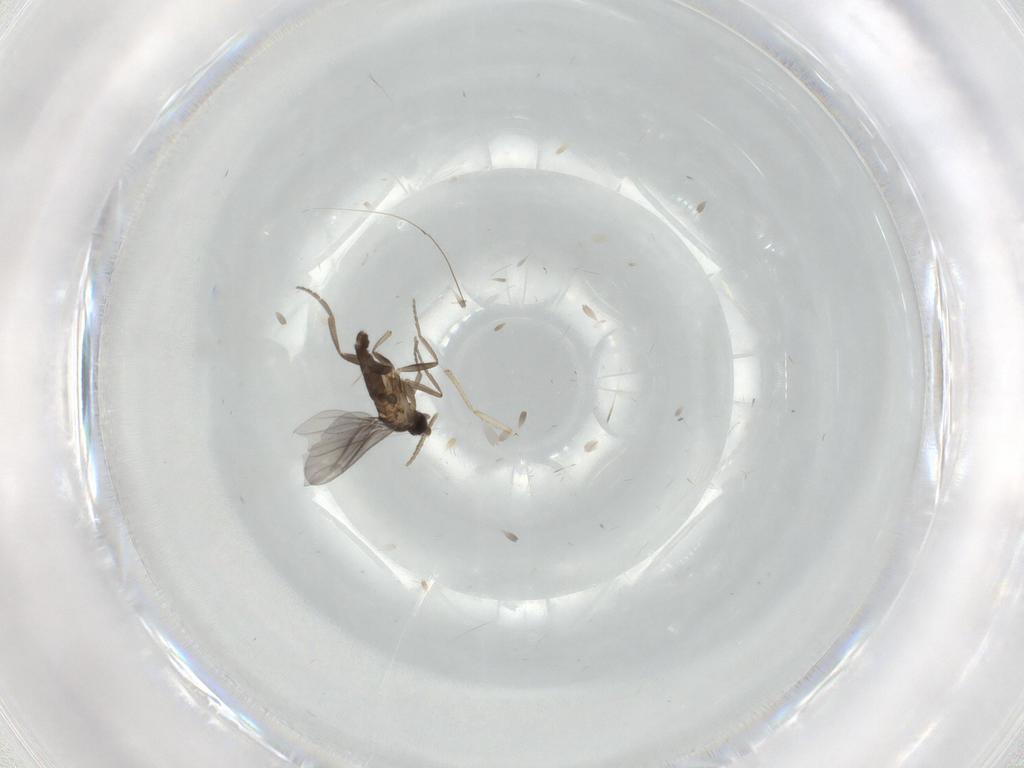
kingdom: Animalia
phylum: Arthropoda
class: Insecta
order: Diptera
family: Phoridae
